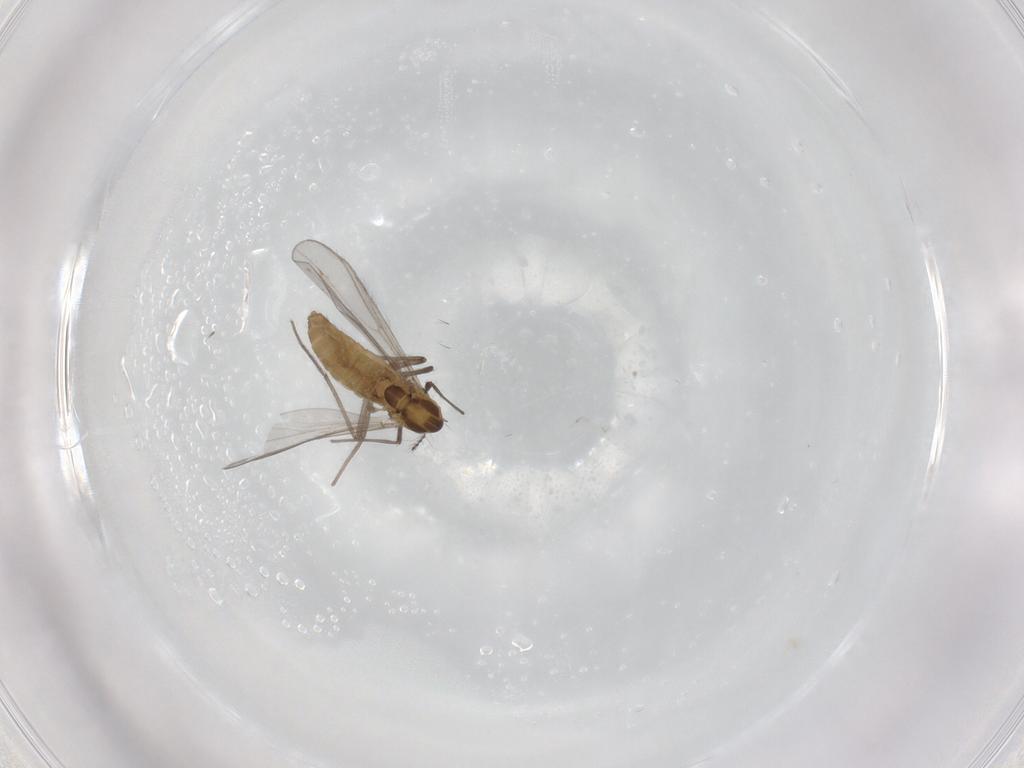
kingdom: Animalia
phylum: Arthropoda
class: Insecta
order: Diptera
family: Chironomidae
